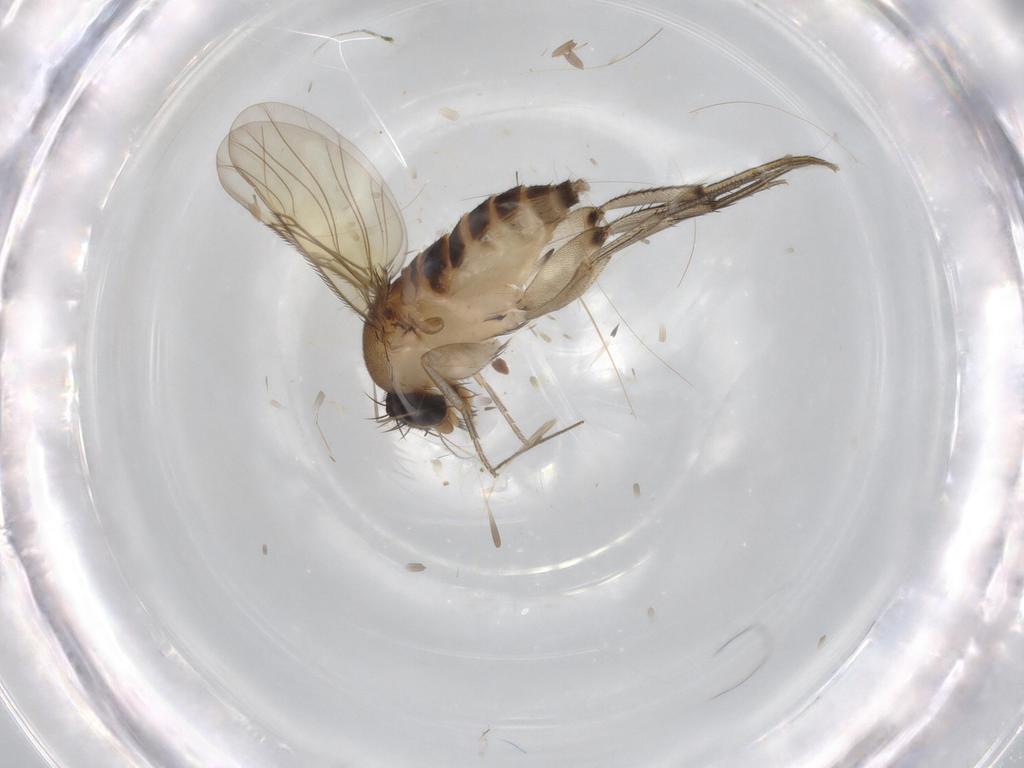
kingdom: Animalia
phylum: Arthropoda
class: Insecta
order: Diptera
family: Phoridae
